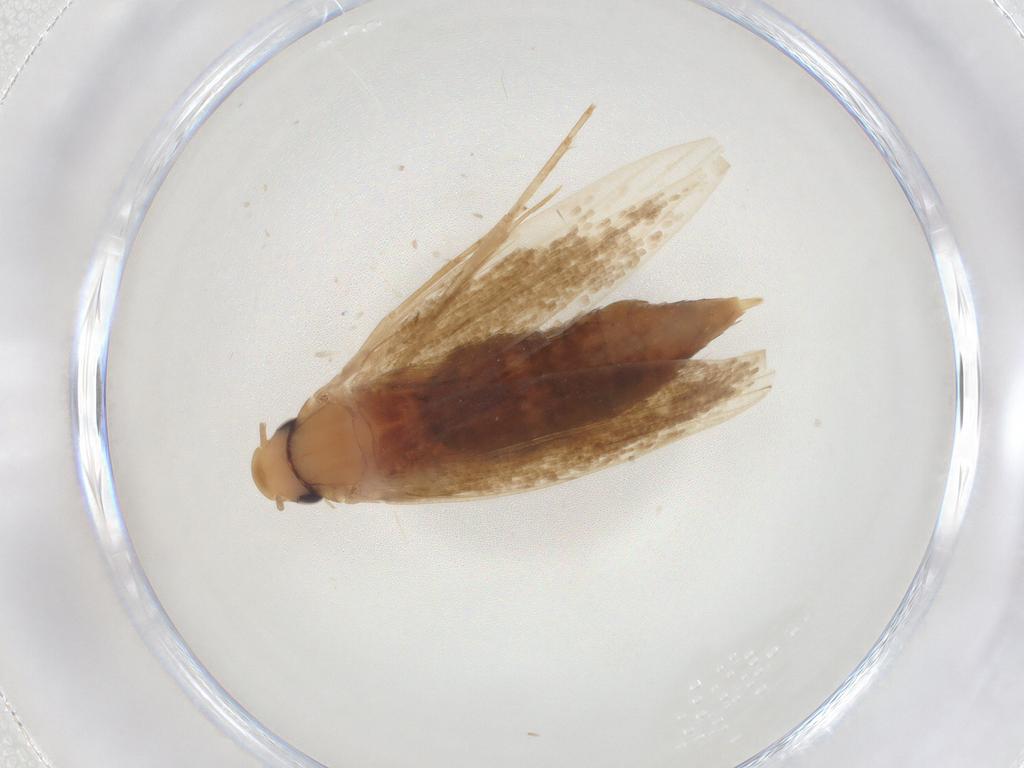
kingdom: Animalia
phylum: Arthropoda
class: Insecta
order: Lepidoptera
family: Tineidae
